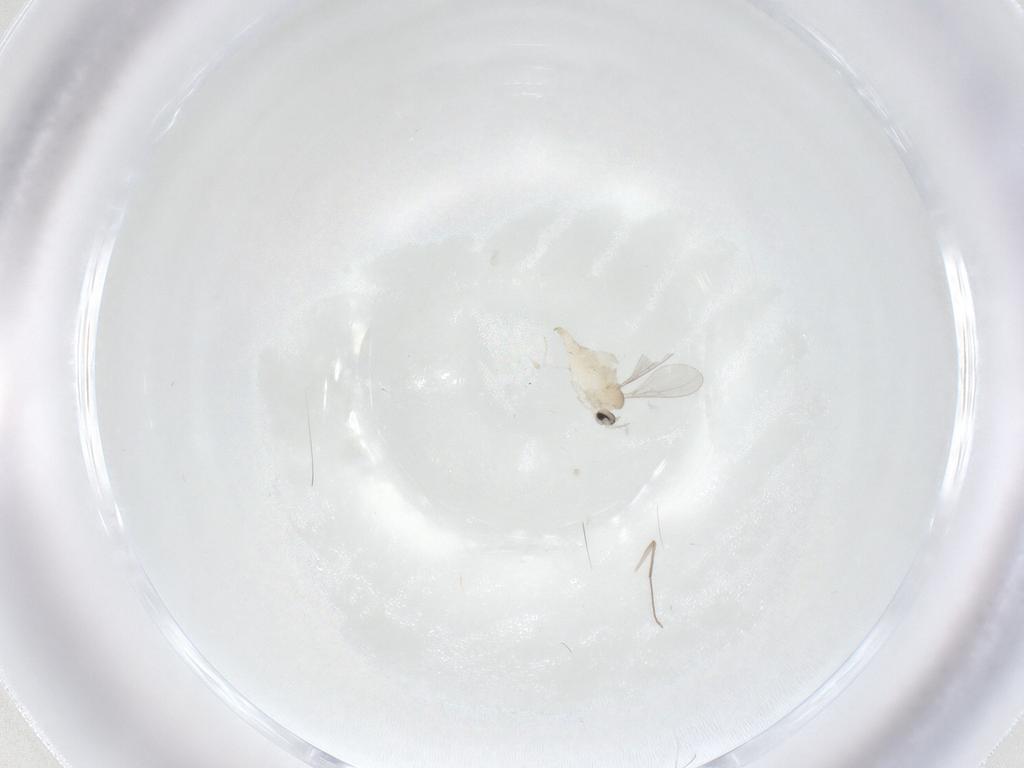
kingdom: Animalia
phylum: Arthropoda
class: Insecta
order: Diptera
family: Cecidomyiidae
